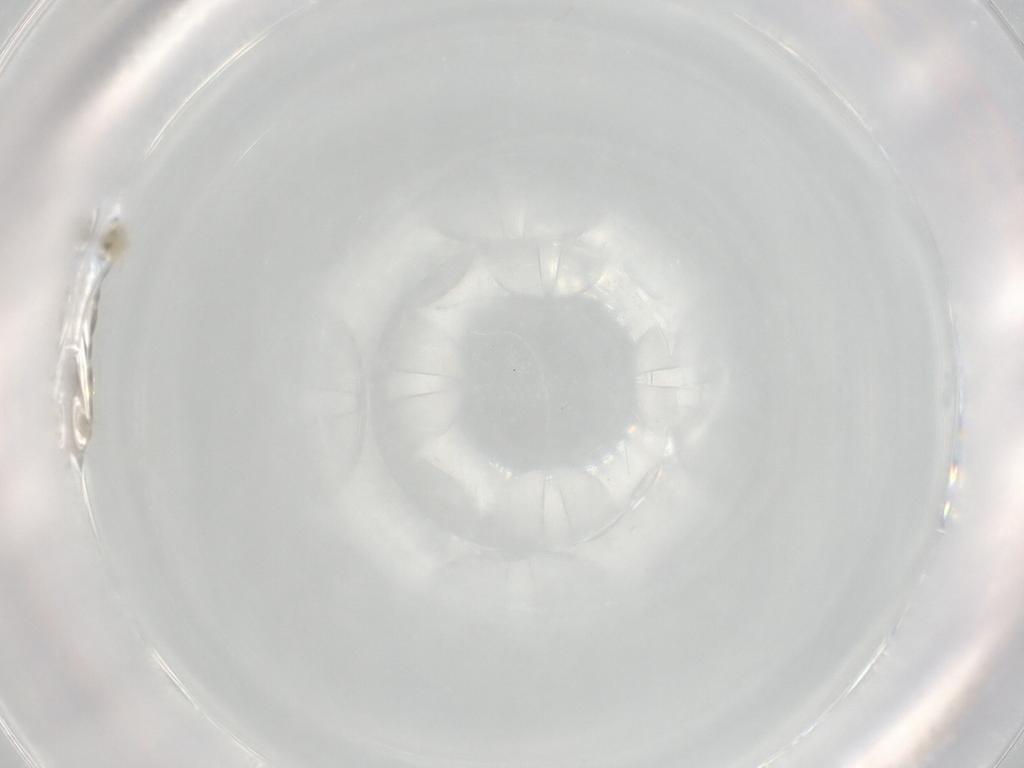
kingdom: Animalia
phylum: Arthropoda
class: Insecta
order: Diptera
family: Chironomidae
